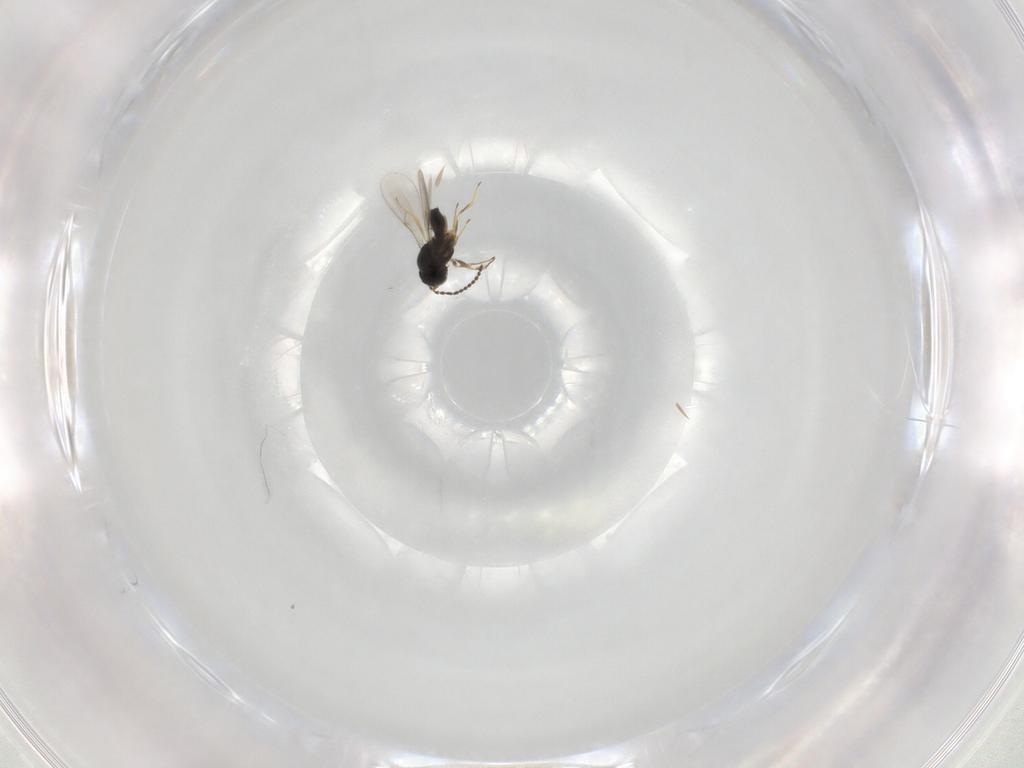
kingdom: Animalia
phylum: Arthropoda
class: Insecta
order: Hymenoptera
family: Scelionidae
